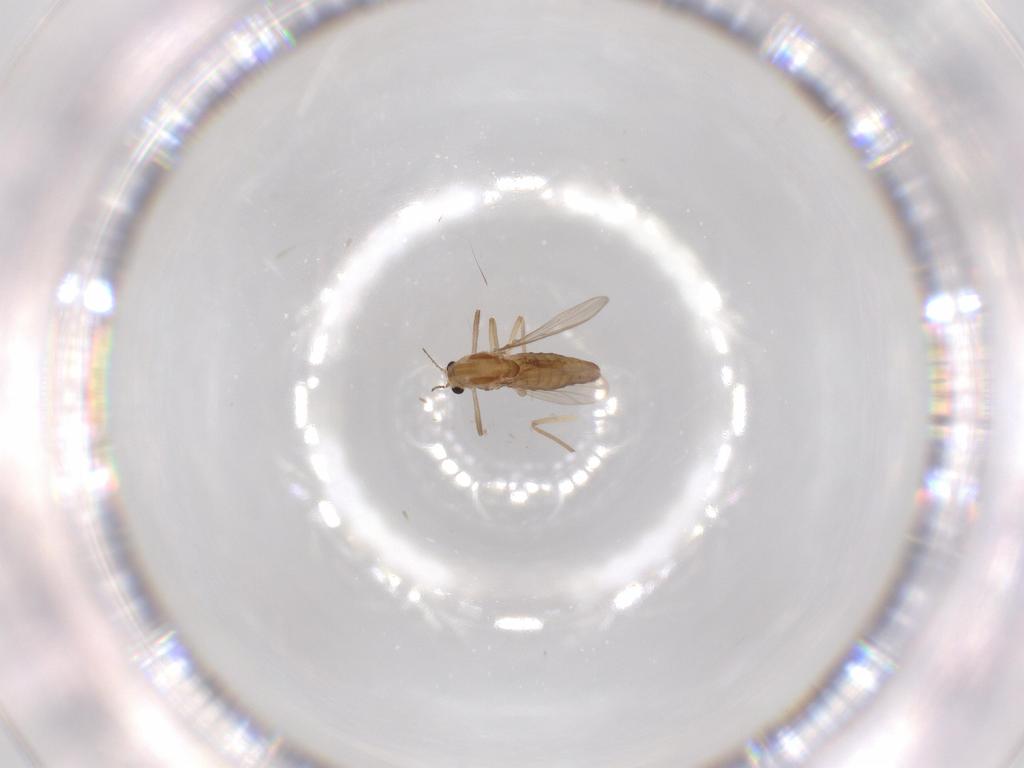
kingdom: Animalia
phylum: Arthropoda
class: Insecta
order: Diptera
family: Chironomidae
